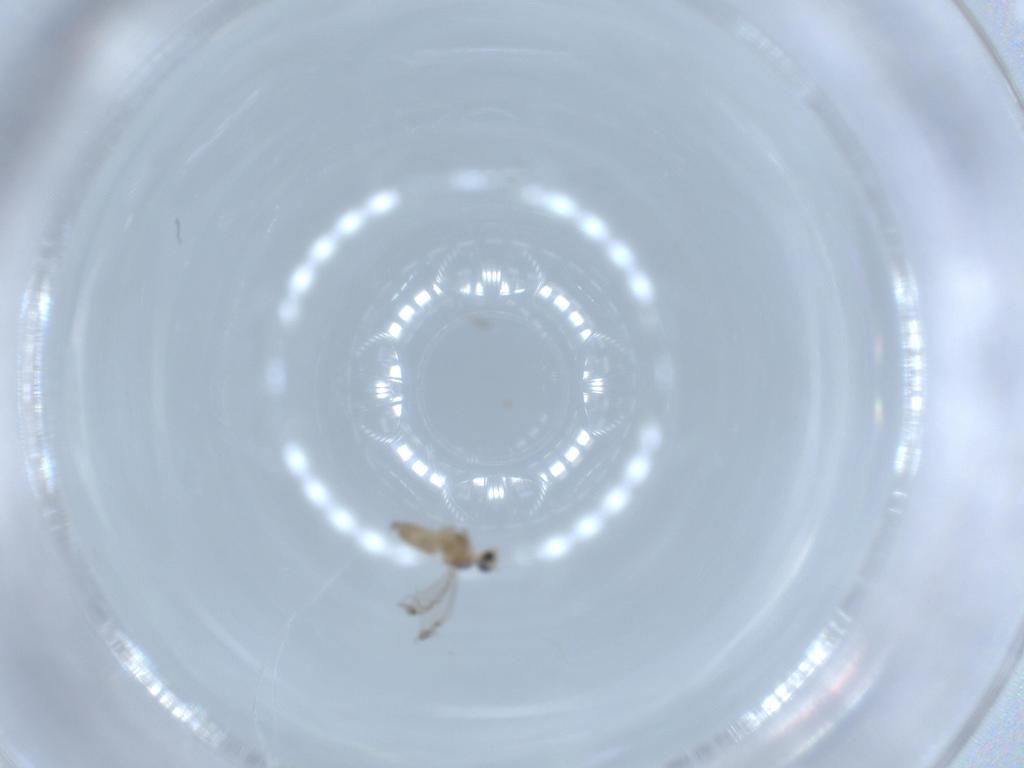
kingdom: Animalia
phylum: Arthropoda
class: Insecta
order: Diptera
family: Cecidomyiidae
